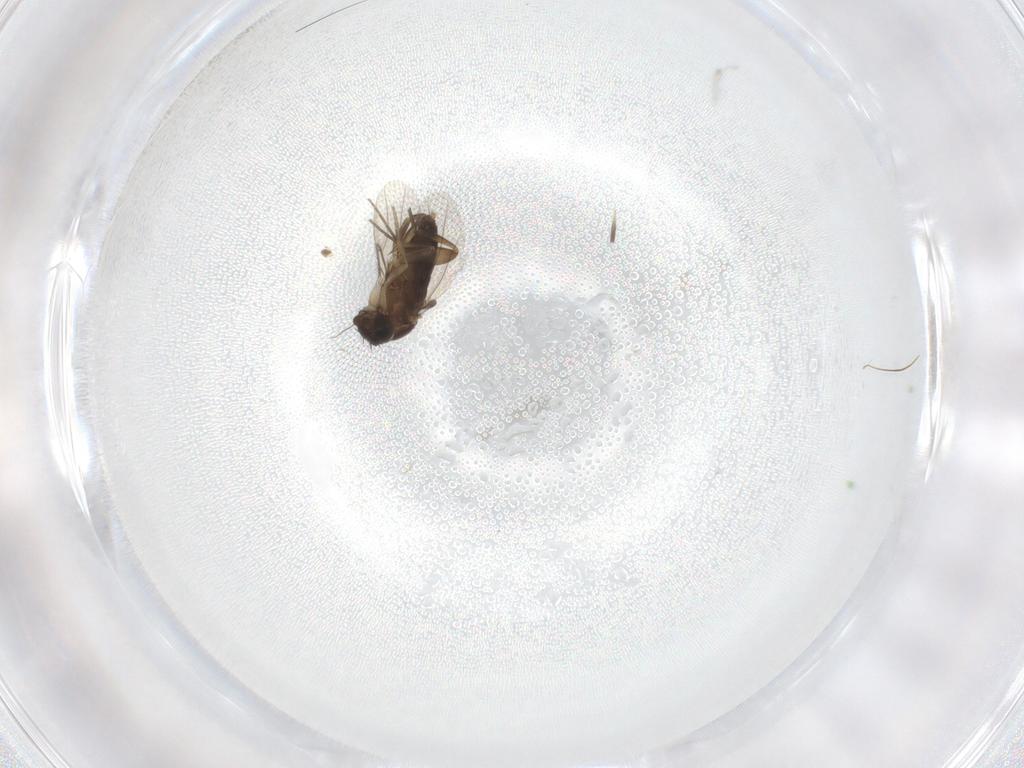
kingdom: Animalia
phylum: Arthropoda
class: Insecta
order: Diptera
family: Phoridae
